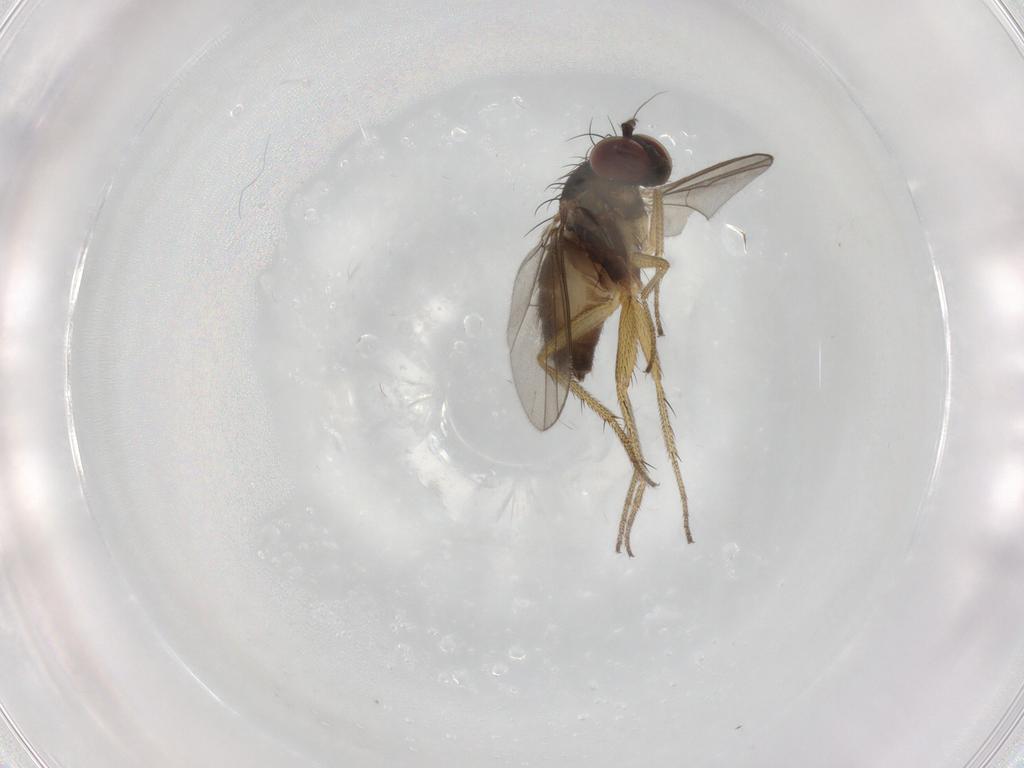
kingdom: Animalia
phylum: Arthropoda
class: Insecta
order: Diptera
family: Dolichopodidae
